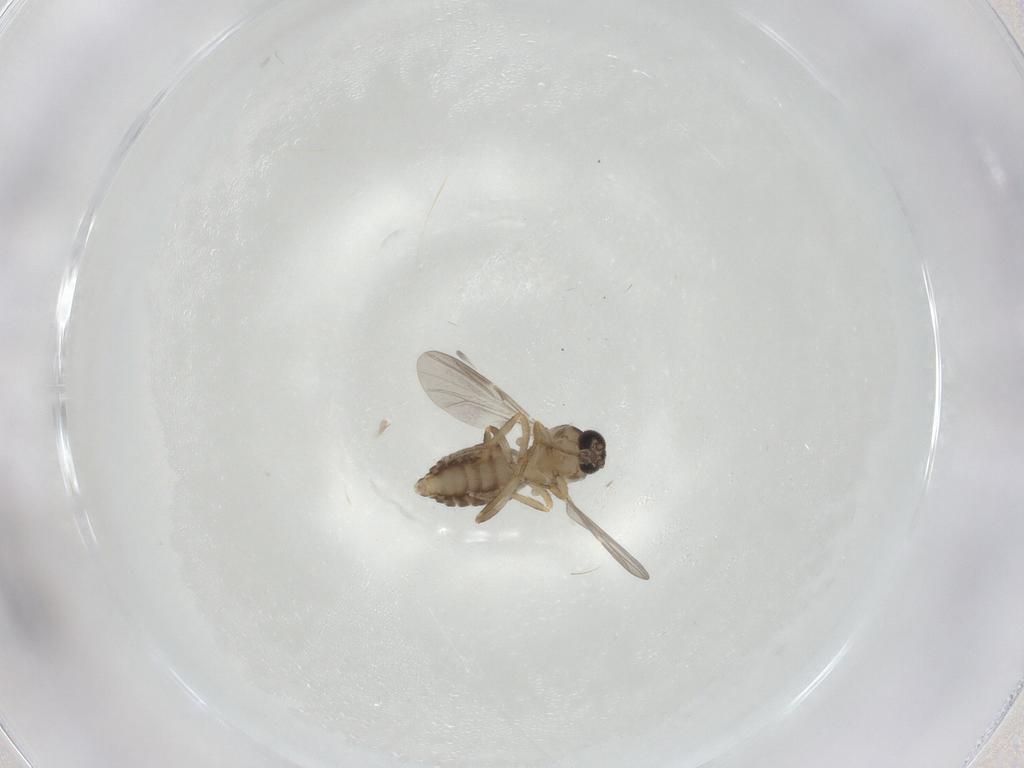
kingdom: Animalia
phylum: Arthropoda
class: Insecta
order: Diptera
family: Ceratopogonidae
